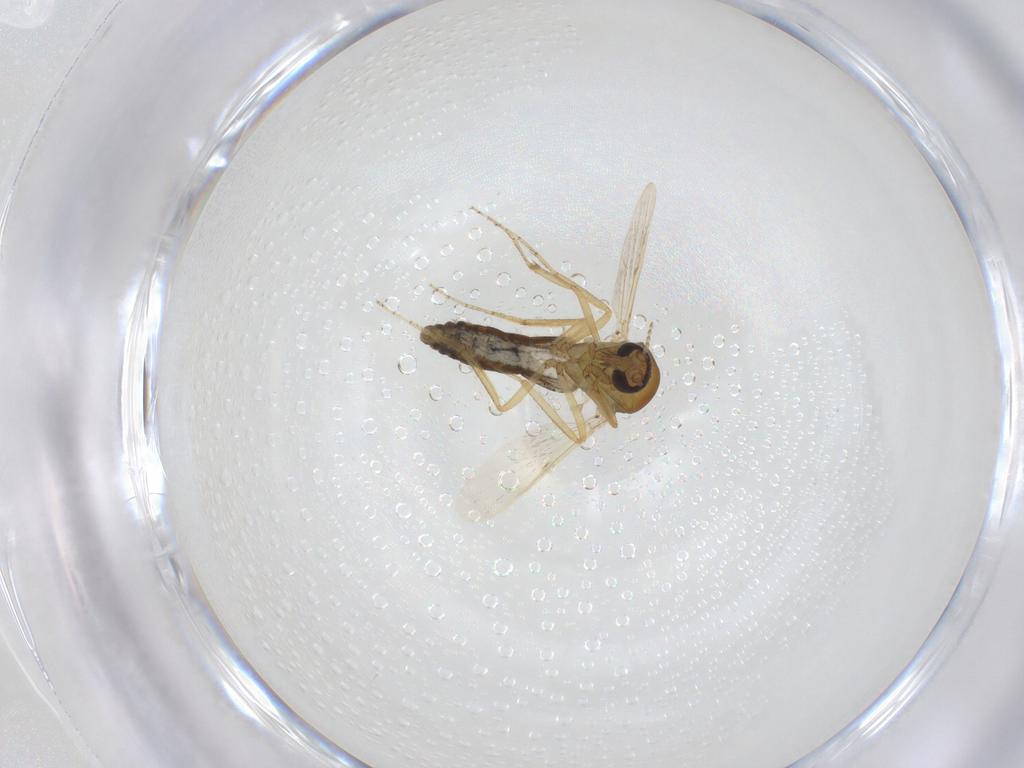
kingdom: Animalia
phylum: Arthropoda
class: Insecta
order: Diptera
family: Ceratopogonidae
